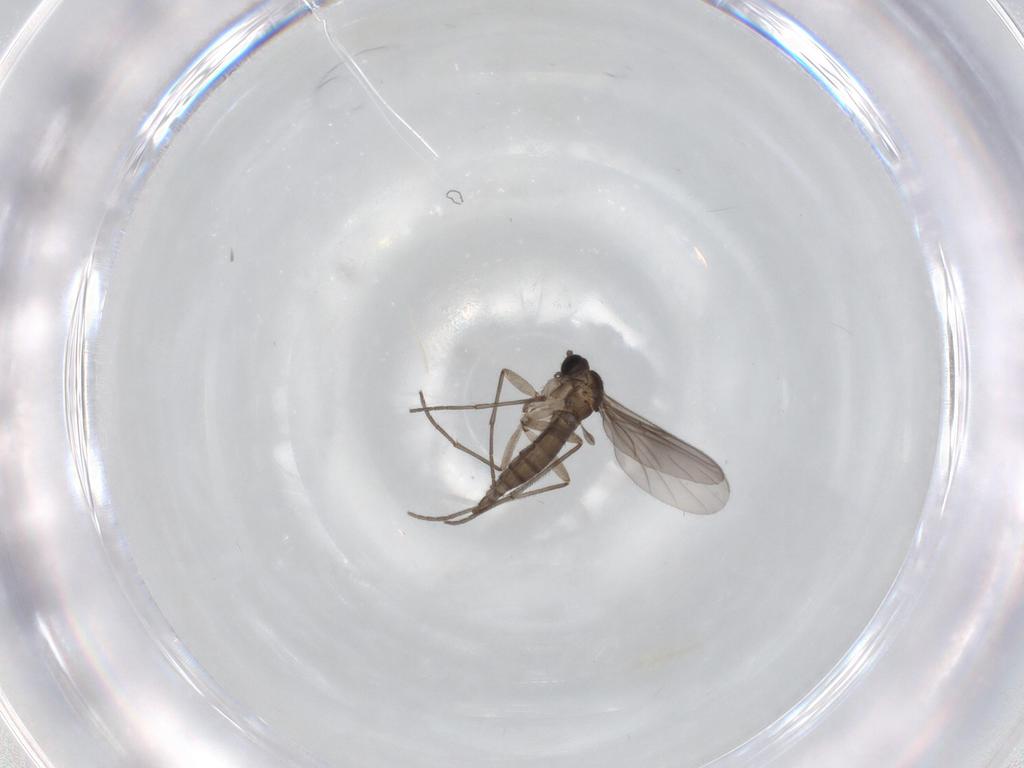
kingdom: Animalia
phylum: Arthropoda
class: Insecta
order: Diptera
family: Sciaridae
